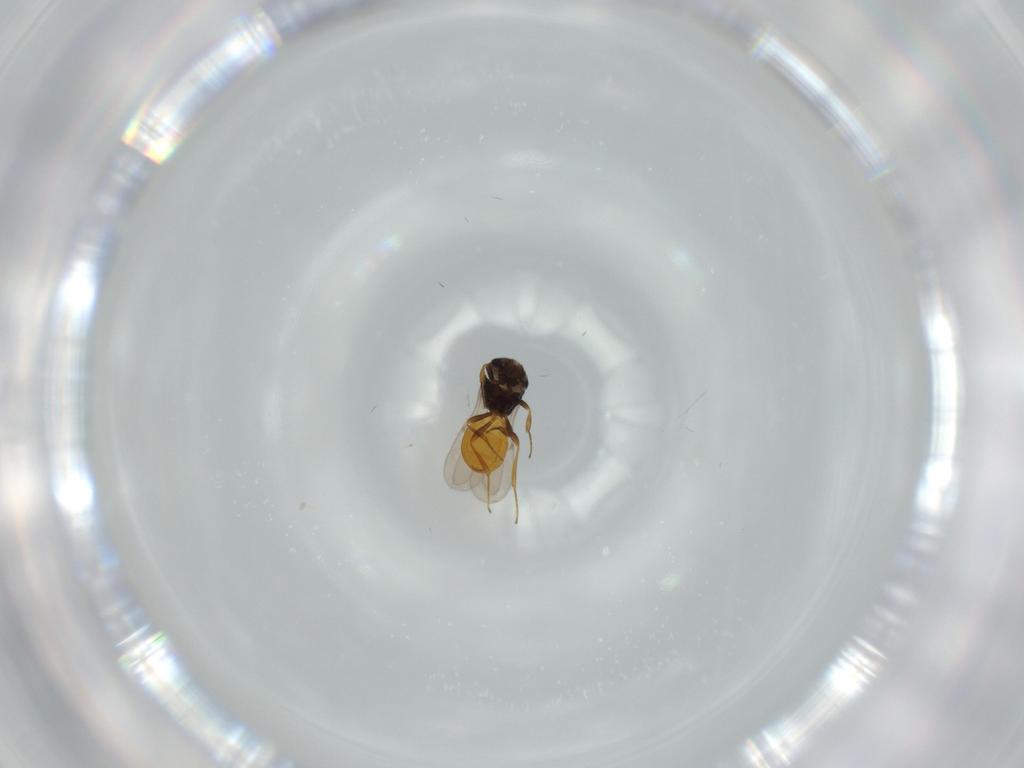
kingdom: Animalia
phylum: Arthropoda
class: Insecta
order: Hymenoptera
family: Scelionidae
